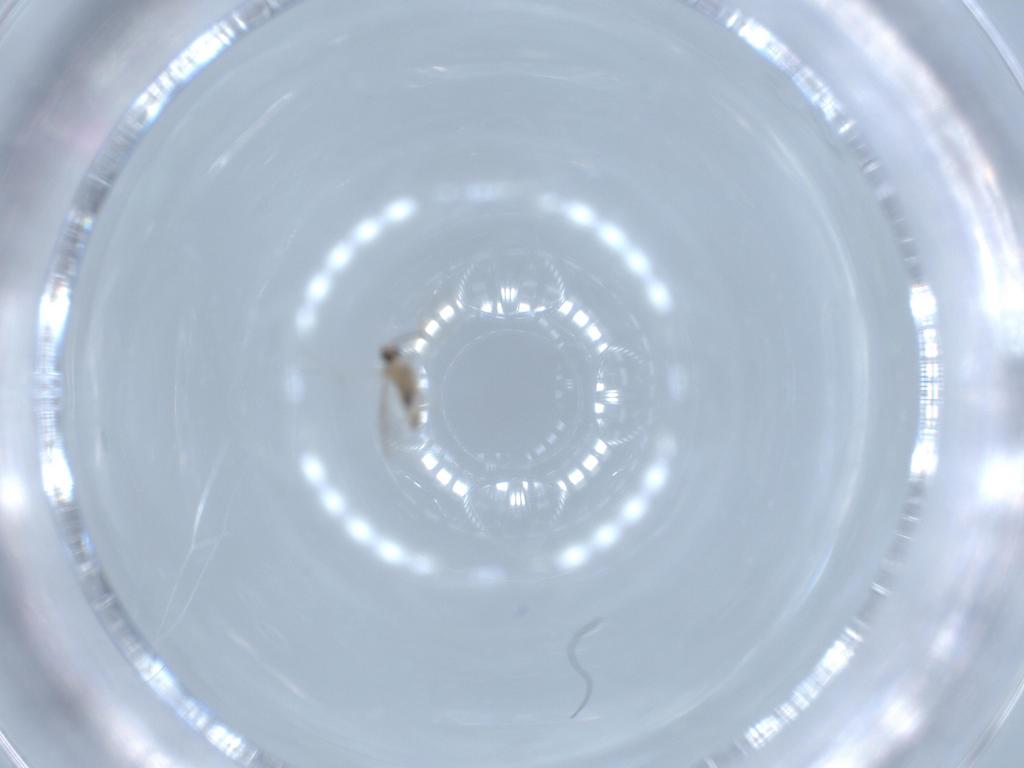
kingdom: Animalia
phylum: Arthropoda
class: Insecta
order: Diptera
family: Cecidomyiidae
